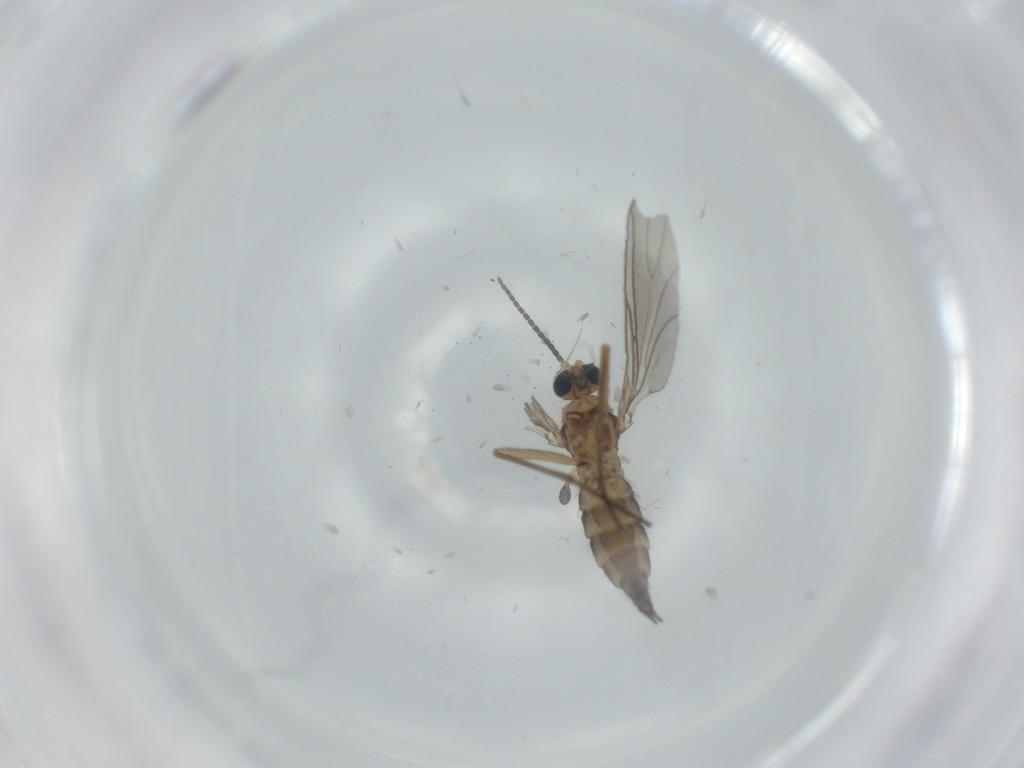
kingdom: Animalia
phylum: Arthropoda
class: Insecta
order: Diptera
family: Sciaridae
